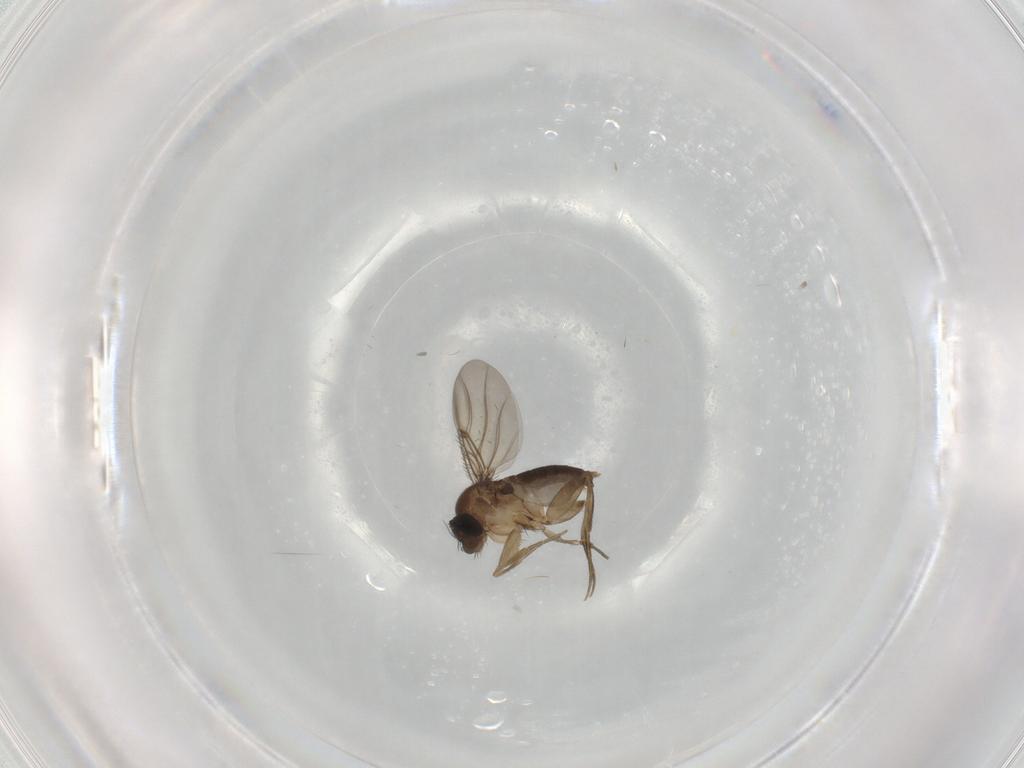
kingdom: Animalia
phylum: Arthropoda
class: Insecta
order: Diptera
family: Phoridae
